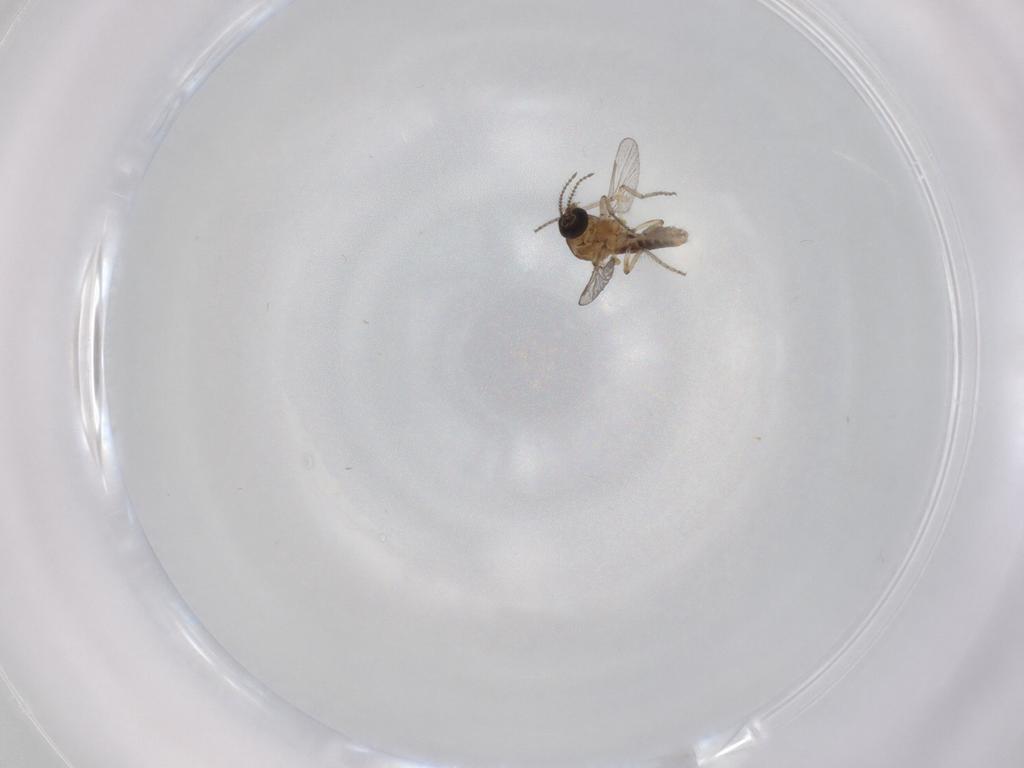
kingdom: Animalia
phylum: Arthropoda
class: Insecta
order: Diptera
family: Ceratopogonidae
